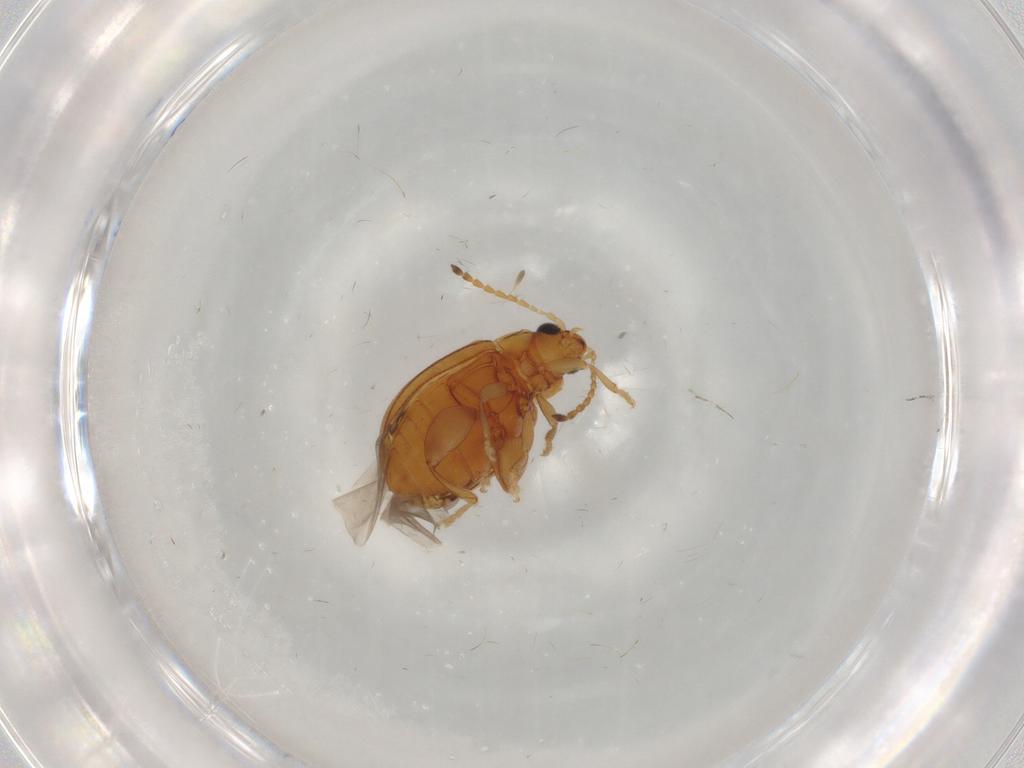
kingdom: Animalia
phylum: Arthropoda
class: Insecta
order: Coleoptera
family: Chrysomelidae
